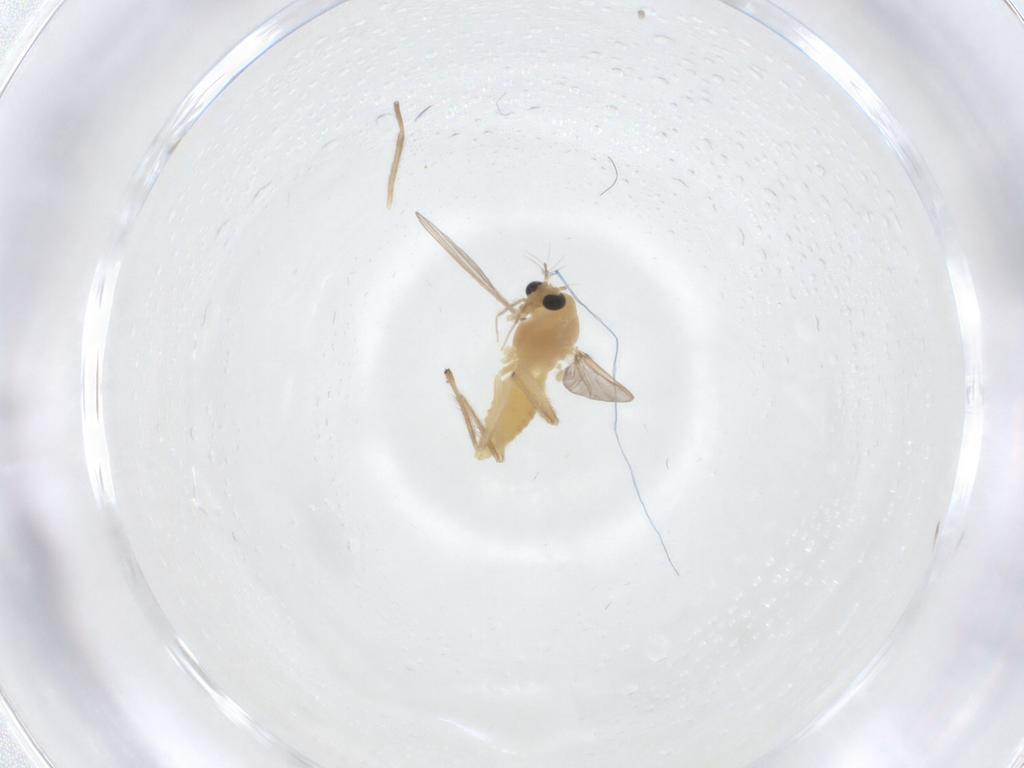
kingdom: Animalia
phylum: Arthropoda
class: Insecta
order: Diptera
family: Chironomidae
